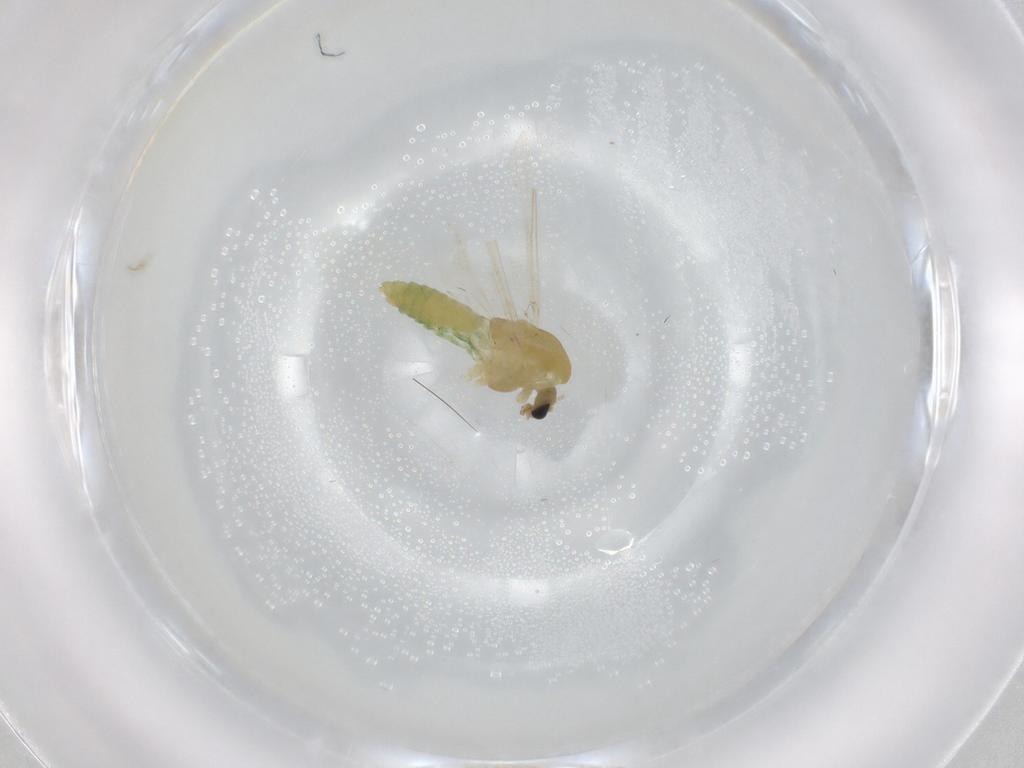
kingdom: Animalia
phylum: Arthropoda
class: Insecta
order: Diptera
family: Chironomidae
